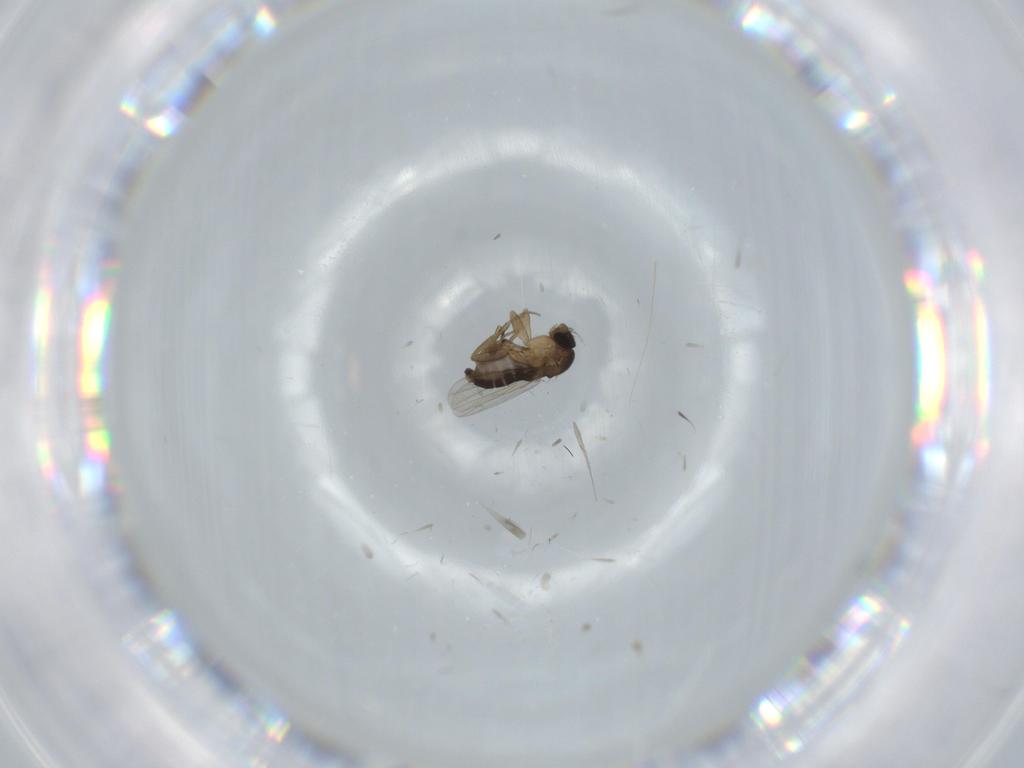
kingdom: Animalia
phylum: Arthropoda
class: Insecta
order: Diptera
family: Phoridae
